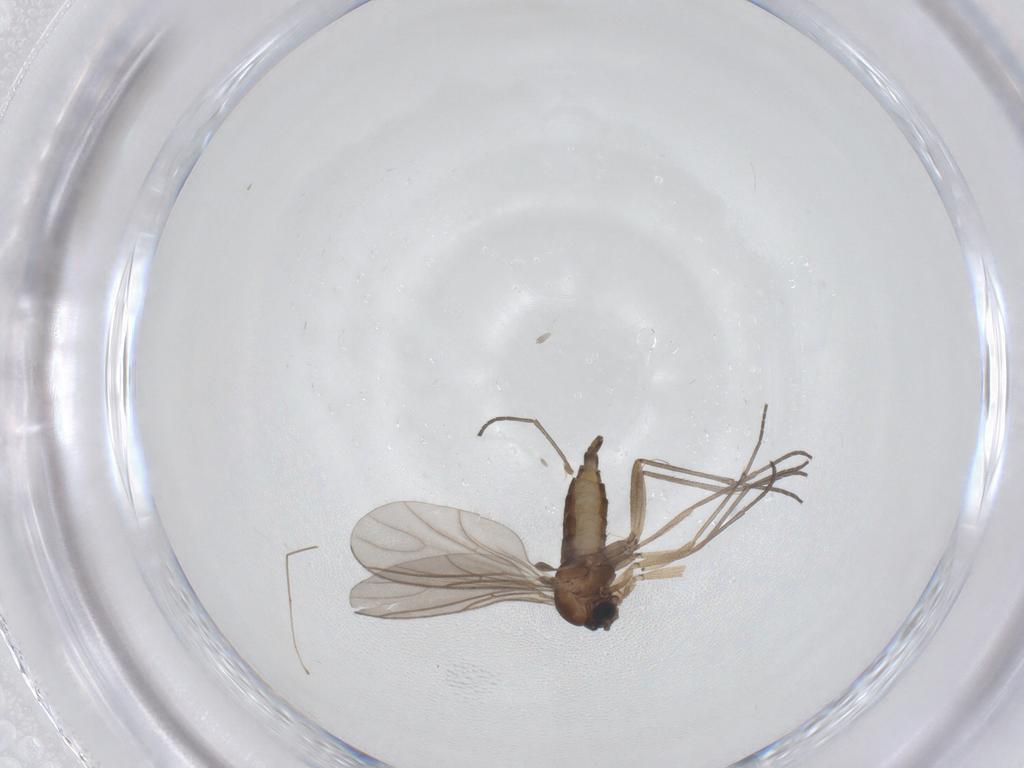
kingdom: Animalia
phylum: Arthropoda
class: Insecta
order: Diptera
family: Sciaridae
